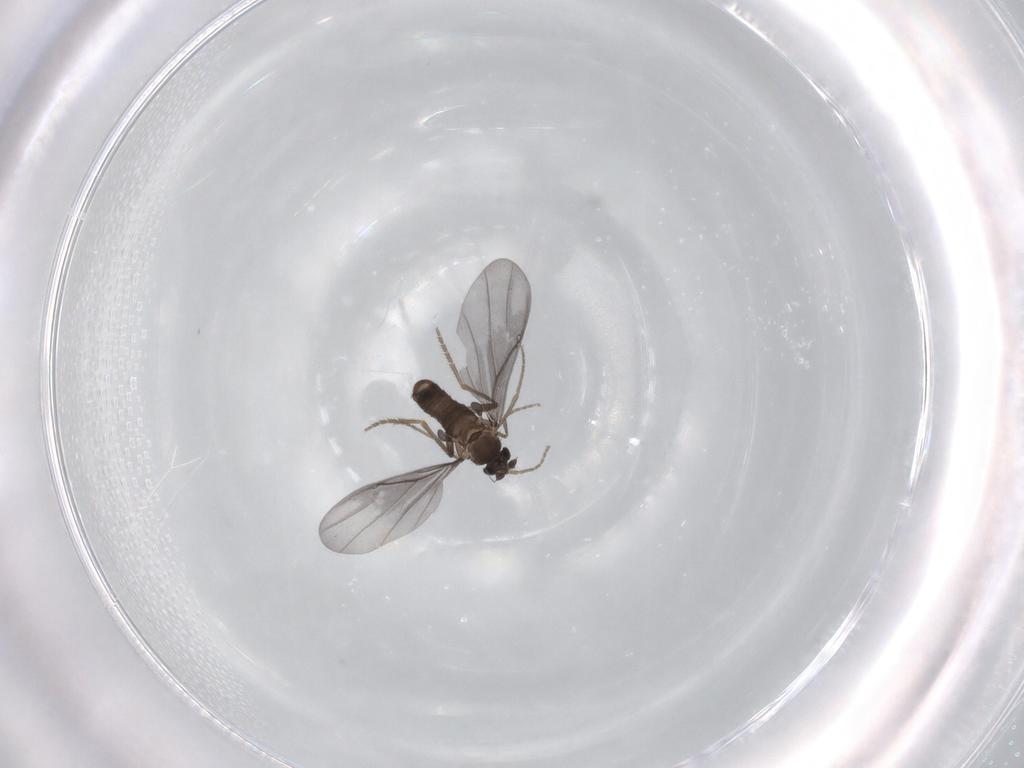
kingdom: Animalia
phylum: Arthropoda
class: Insecta
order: Diptera
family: Phoridae
